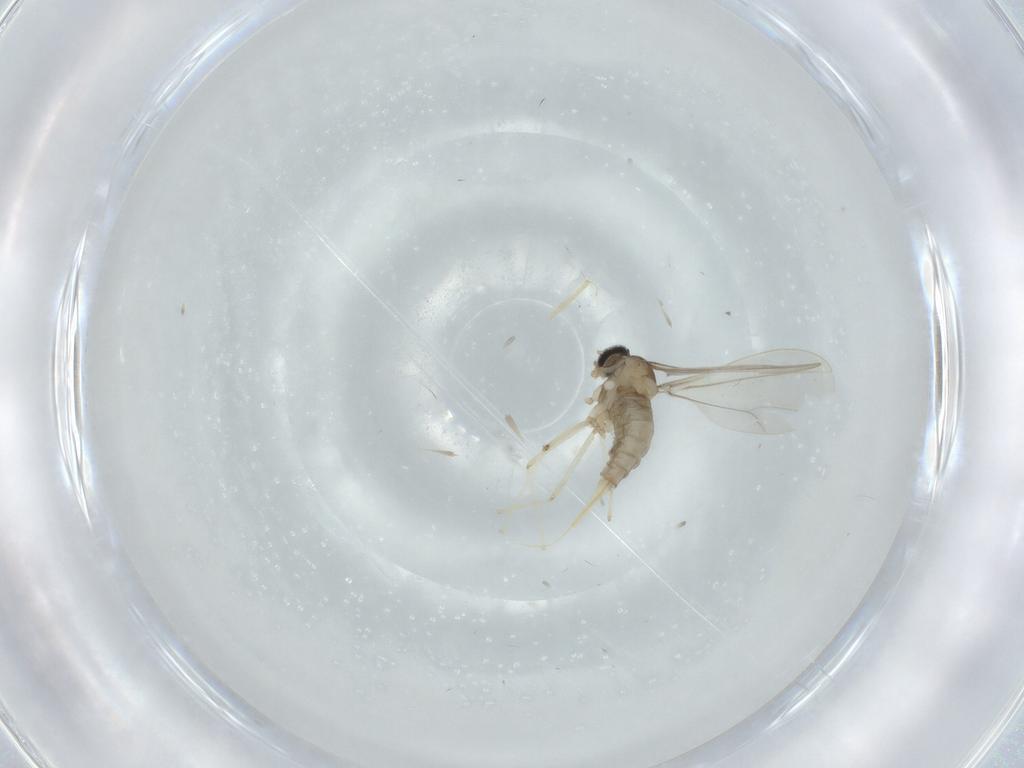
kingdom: Animalia
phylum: Arthropoda
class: Insecta
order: Diptera
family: Cecidomyiidae
